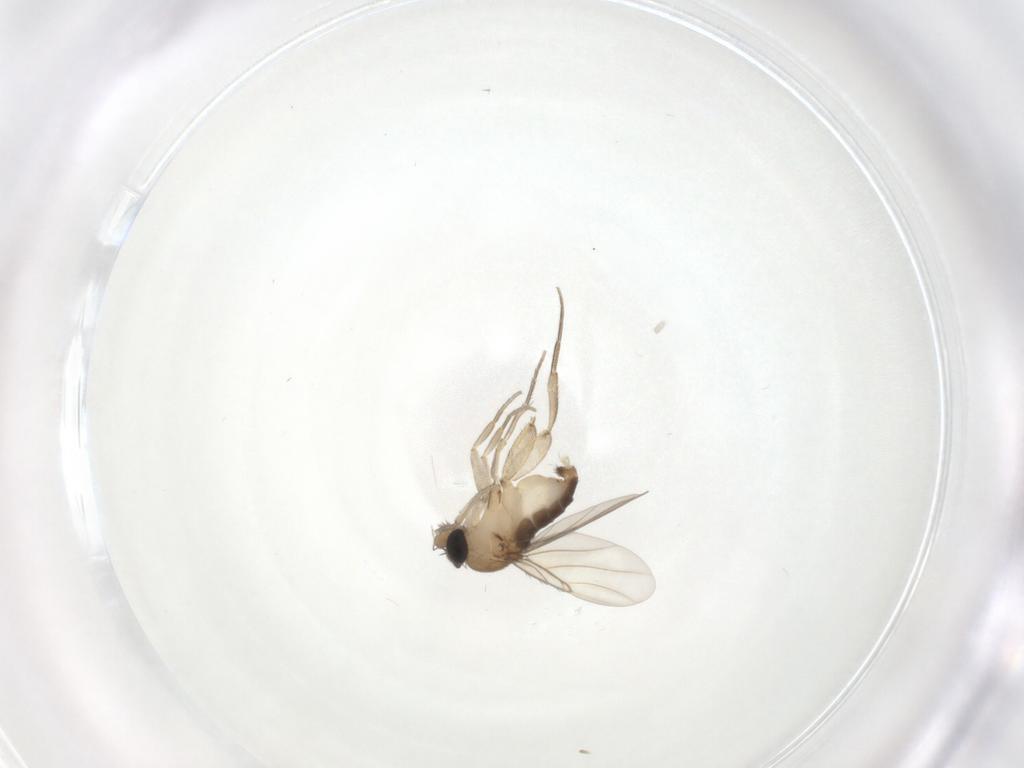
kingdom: Animalia
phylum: Arthropoda
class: Insecta
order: Diptera
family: Phoridae
